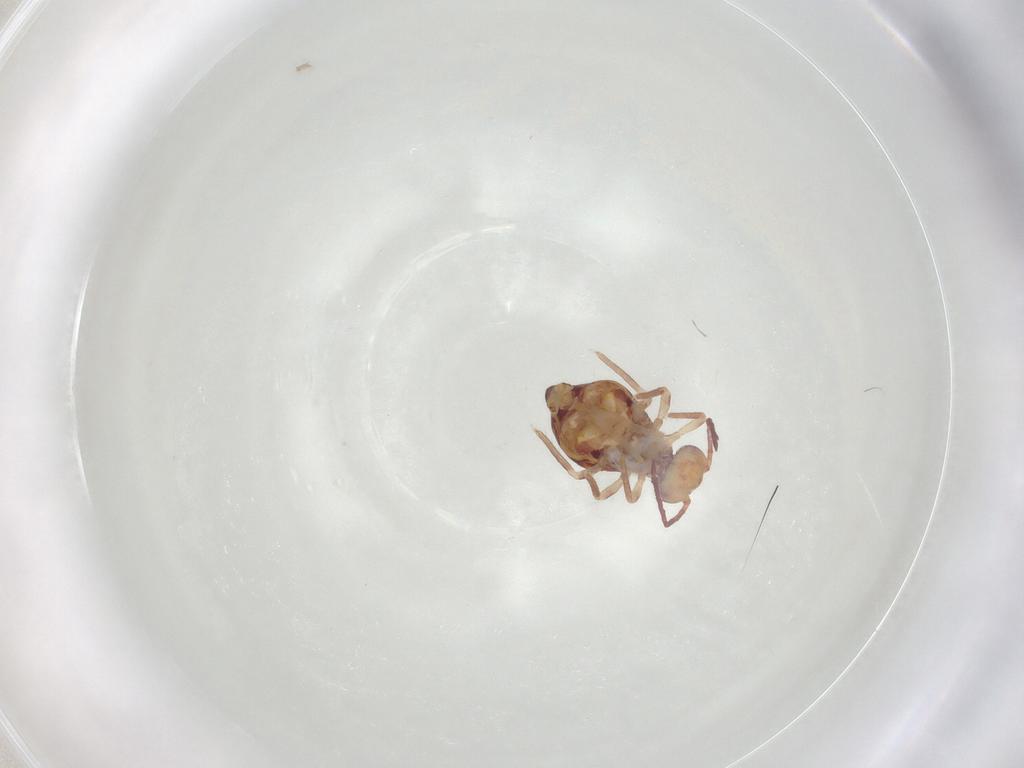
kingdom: Animalia
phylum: Arthropoda
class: Collembola
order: Symphypleona
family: Dicyrtomidae
